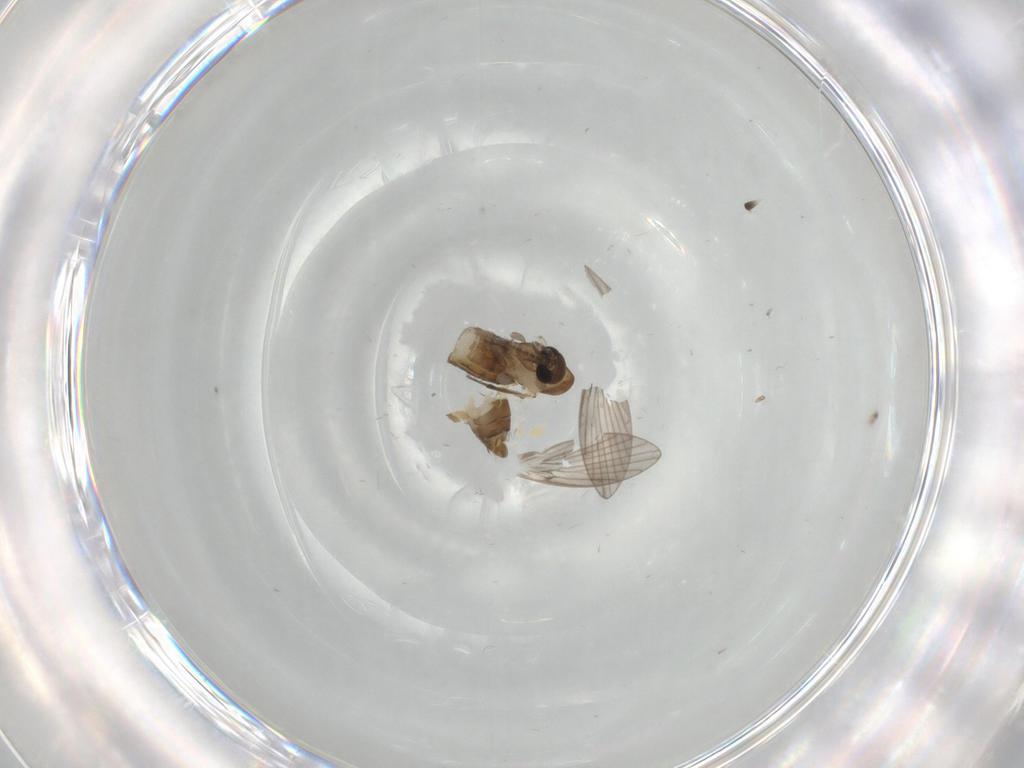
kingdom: Animalia
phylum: Arthropoda
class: Insecta
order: Diptera
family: Psychodidae
